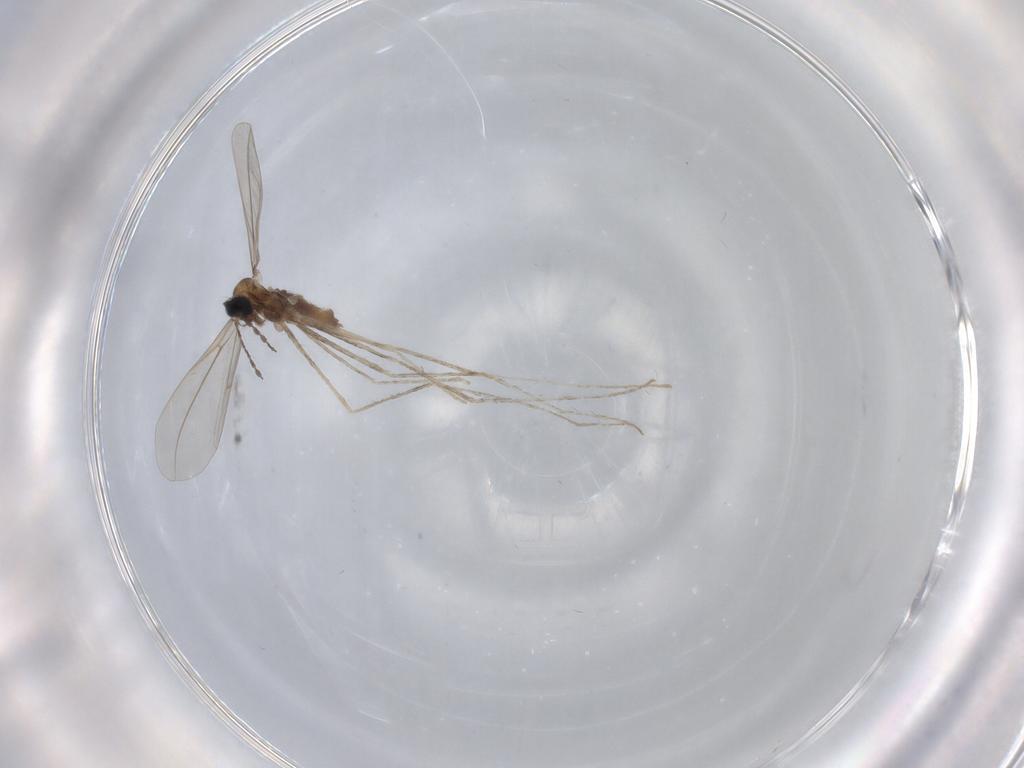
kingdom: Animalia
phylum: Arthropoda
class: Insecta
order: Diptera
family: Cecidomyiidae
